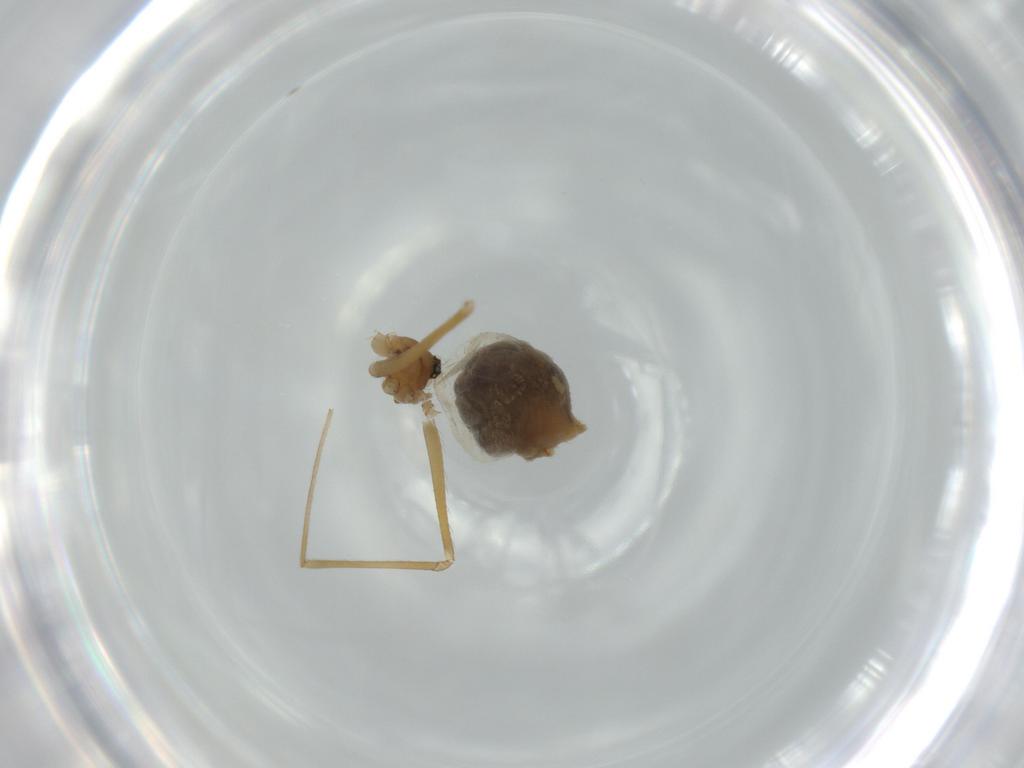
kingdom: Animalia
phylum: Arthropoda
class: Arachnida
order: Araneae
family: Pholcidae
